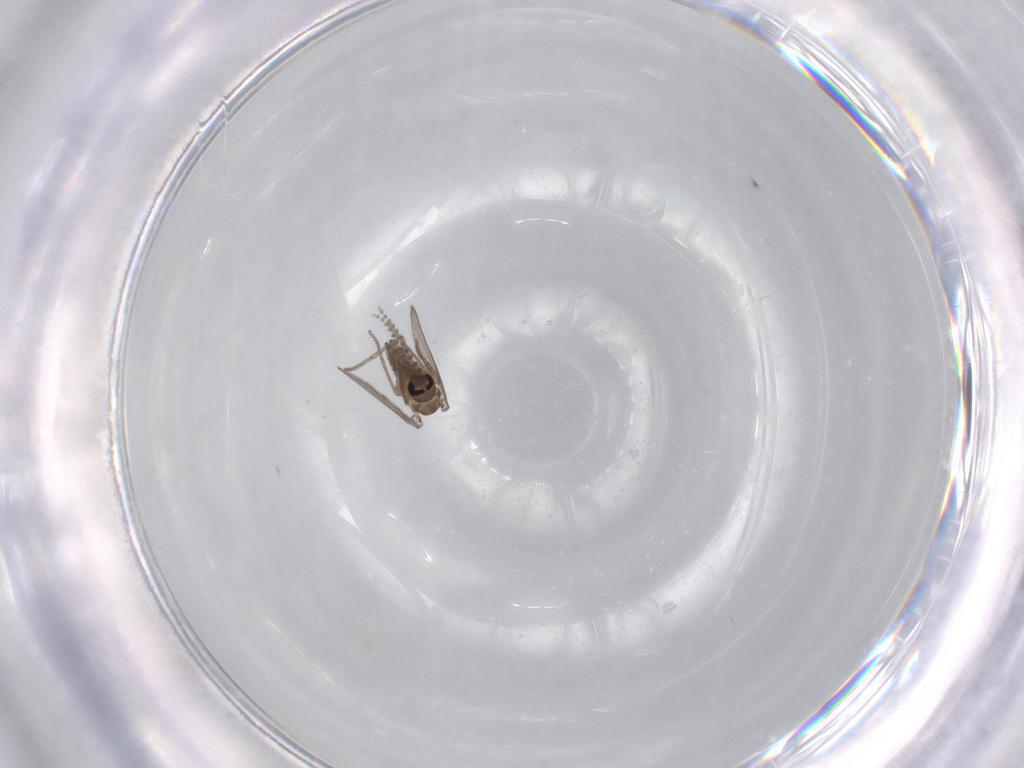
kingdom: Animalia
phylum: Arthropoda
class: Insecta
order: Diptera
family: Psychodidae
